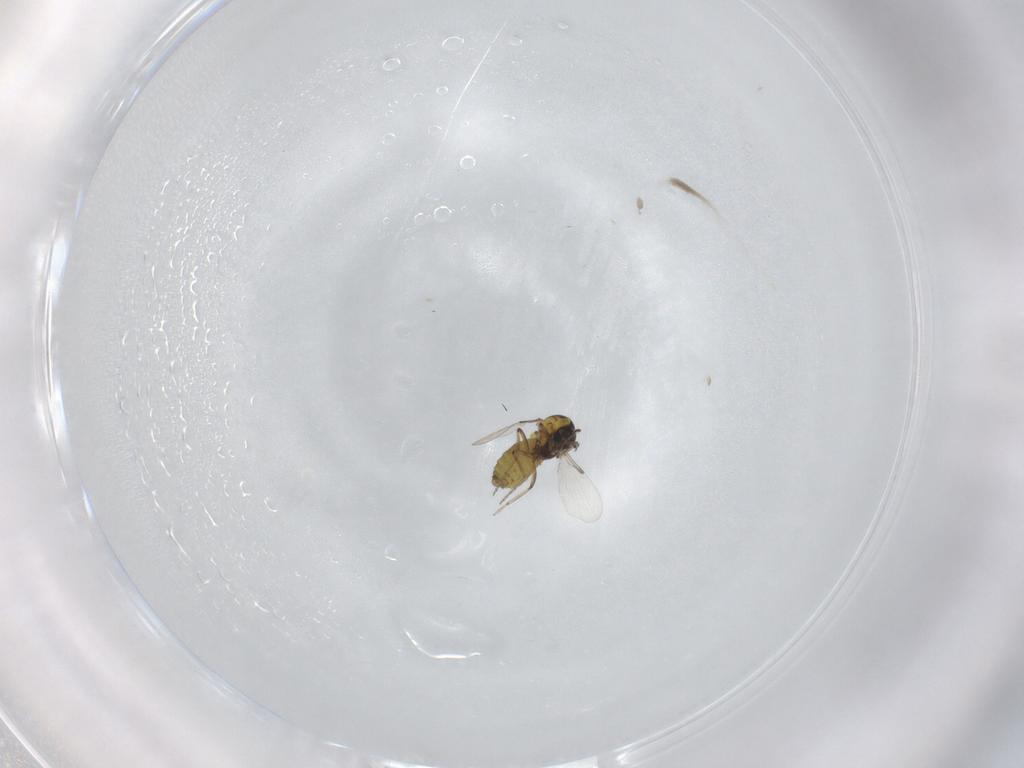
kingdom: Animalia
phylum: Arthropoda
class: Insecta
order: Diptera
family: Ceratopogonidae
